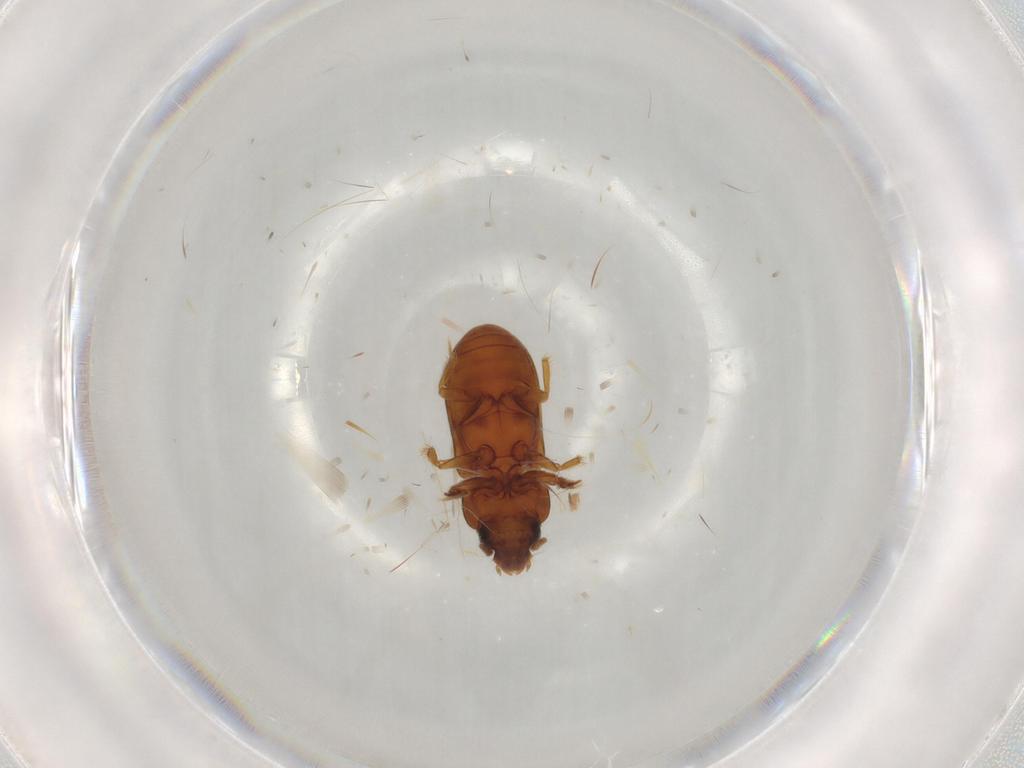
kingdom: Animalia
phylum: Arthropoda
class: Insecta
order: Coleoptera
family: Heteroceridae
